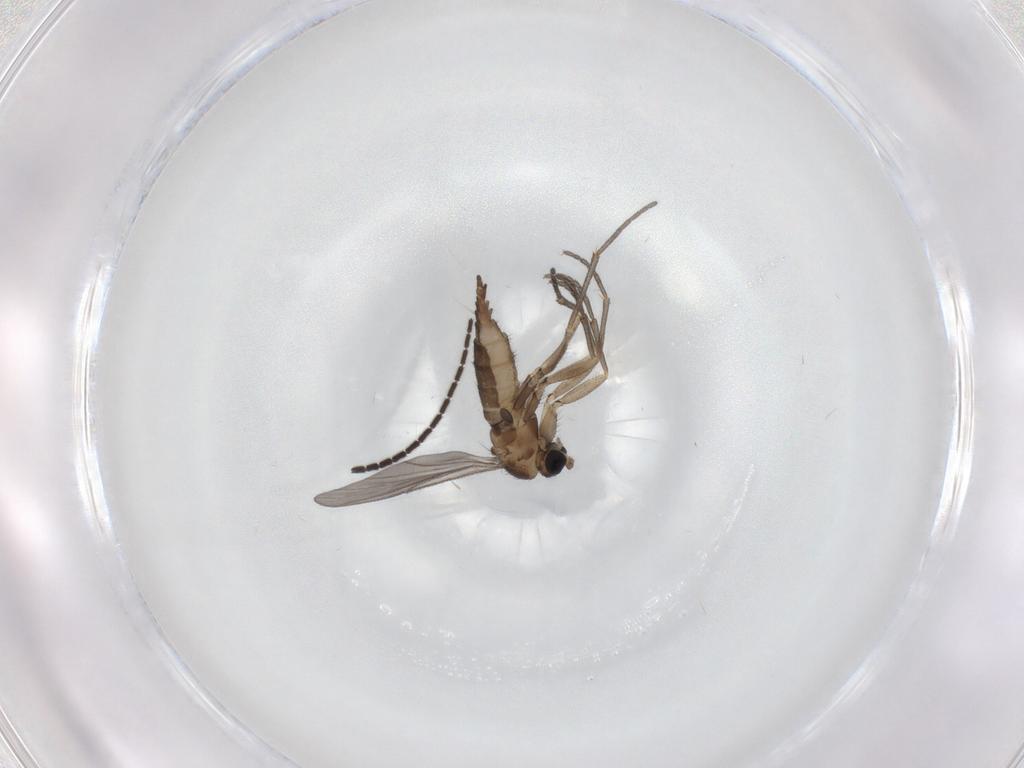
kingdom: Animalia
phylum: Arthropoda
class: Insecta
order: Diptera
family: Sciaridae
